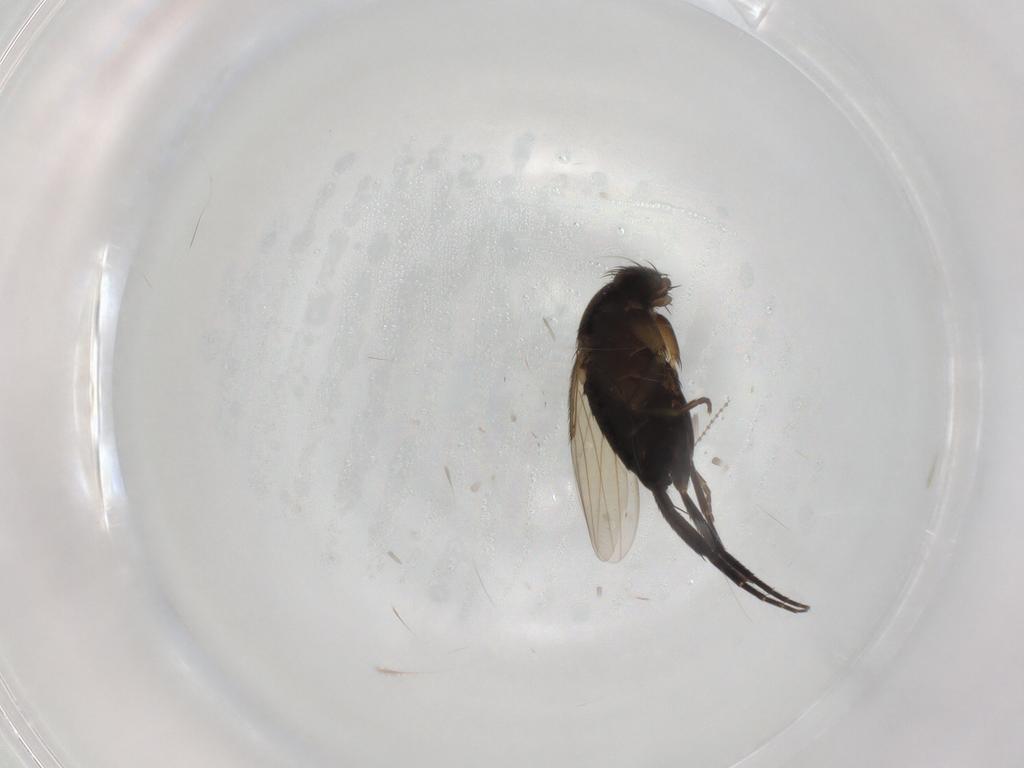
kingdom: Animalia
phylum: Arthropoda
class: Insecta
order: Diptera
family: Phoridae
